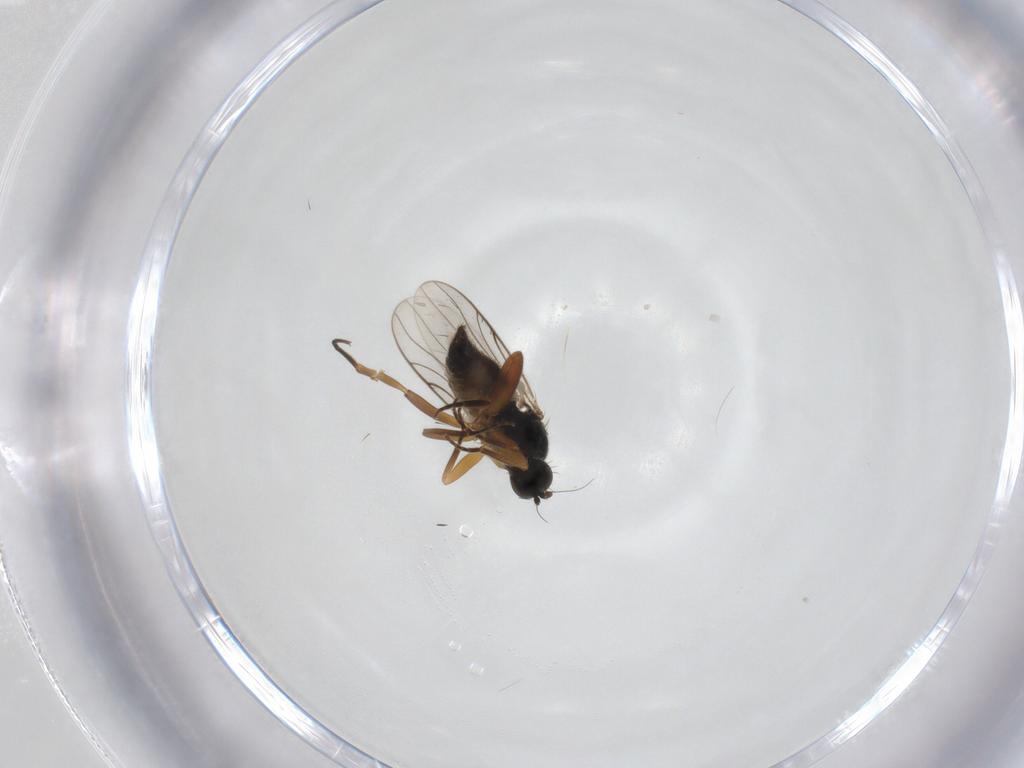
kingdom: Animalia
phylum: Arthropoda
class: Insecta
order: Diptera
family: Hybotidae
